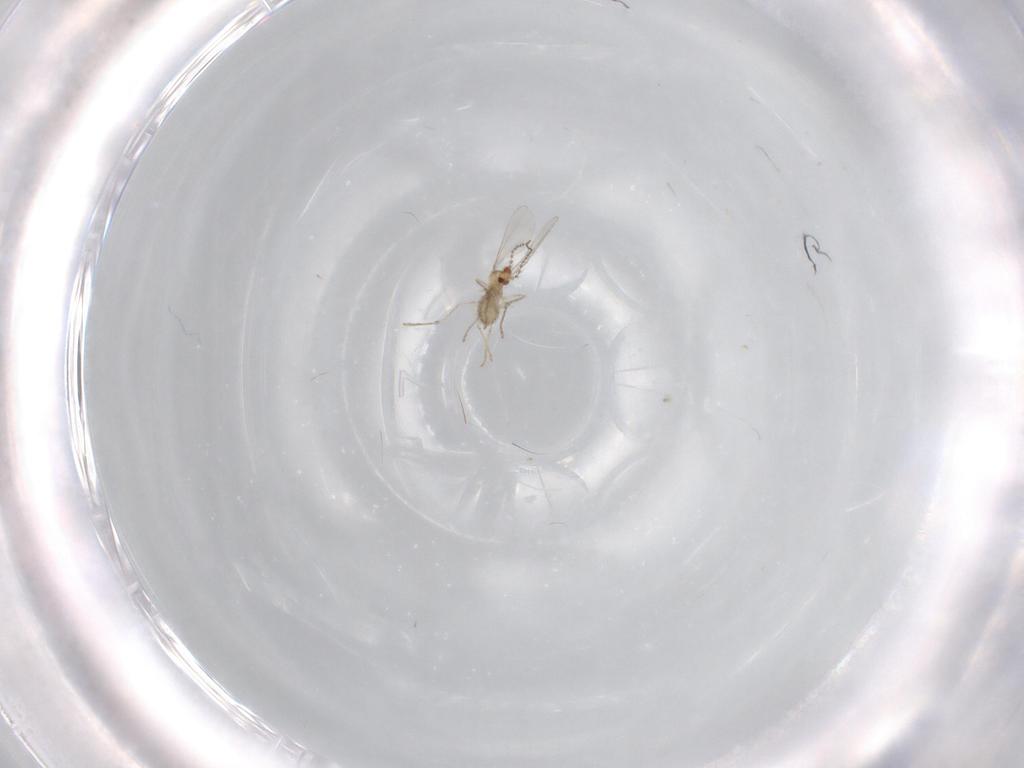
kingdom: Animalia
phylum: Arthropoda
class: Insecta
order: Diptera
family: Cecidomyiidae
